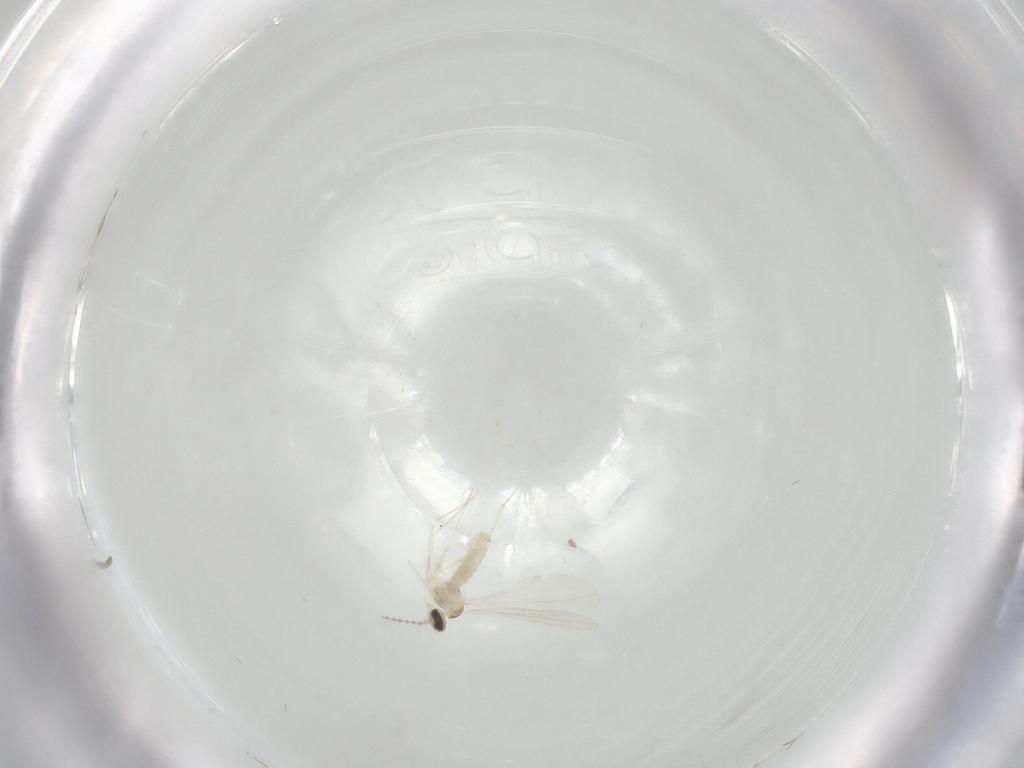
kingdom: Animalia
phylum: Arthropoda
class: Insecta
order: Diptera
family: Cecidomyiidae
